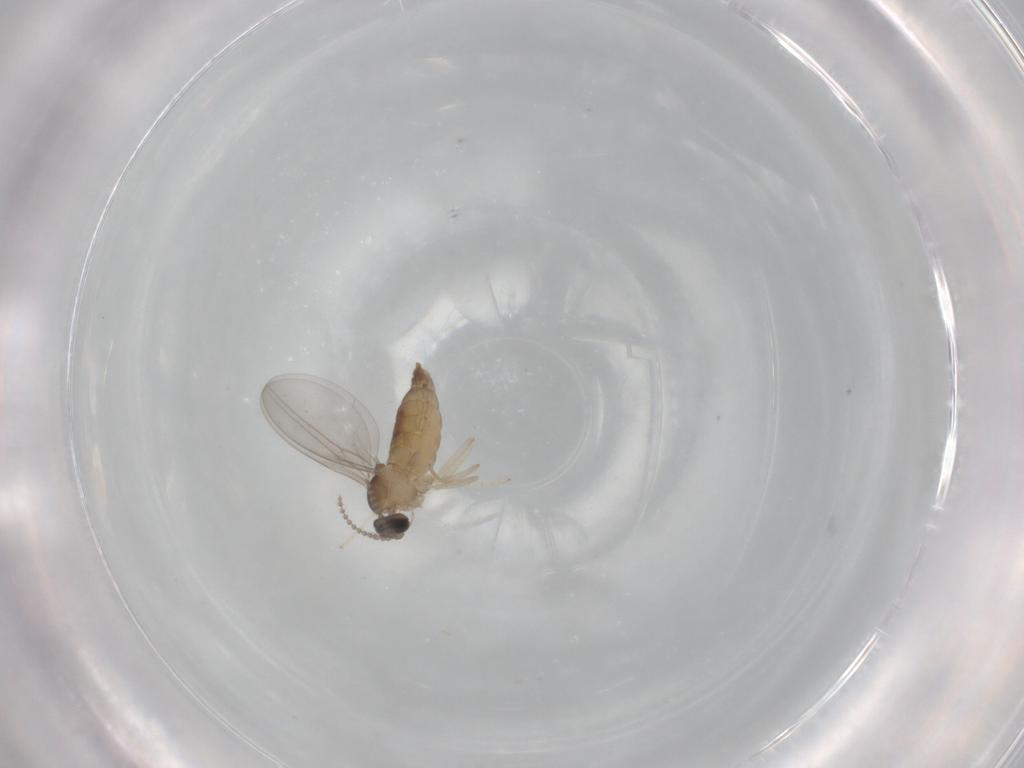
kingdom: Animalia
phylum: Arthropoda
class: Insecta
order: Diptera
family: Cecidomyiidae
